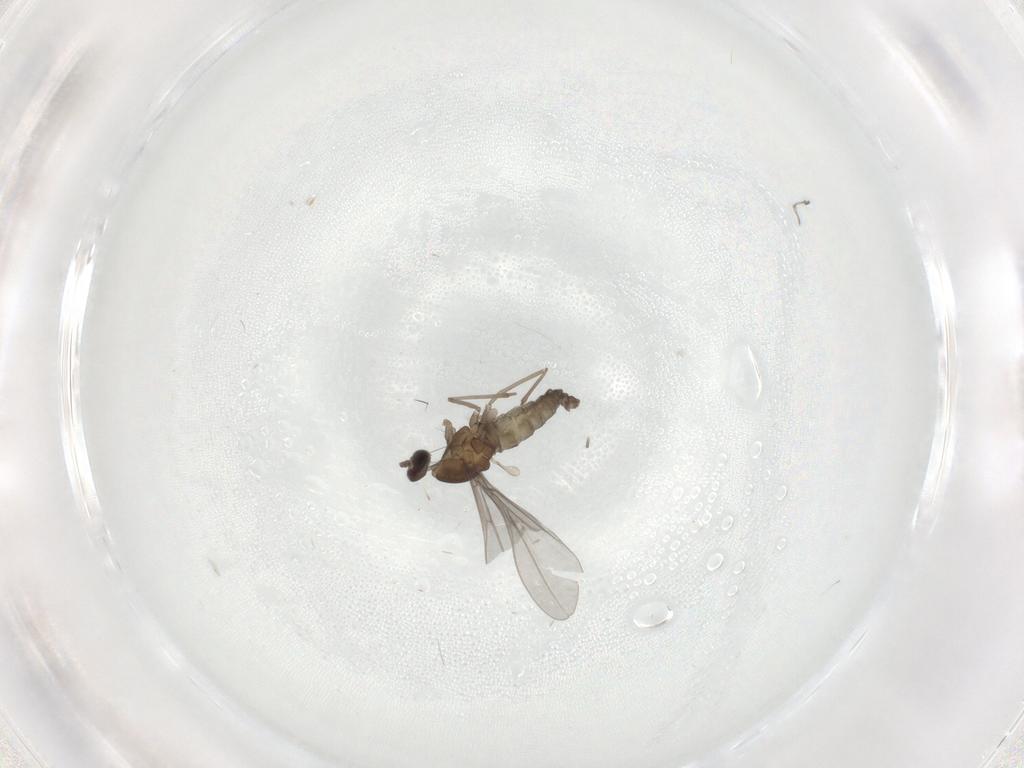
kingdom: Animalia
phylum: Arthropoda
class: Insecta
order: Diptera
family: Cecidomyiidae
